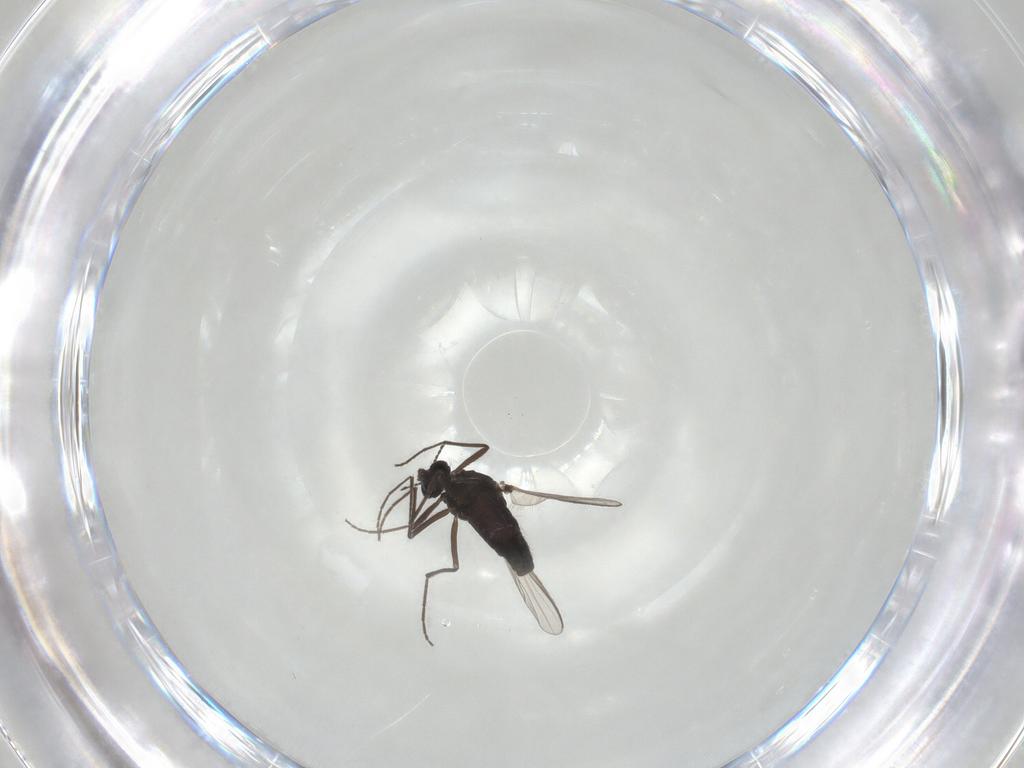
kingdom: Animalia
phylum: Arthropoda
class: Insecta
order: Diptera
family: Chironomidae
